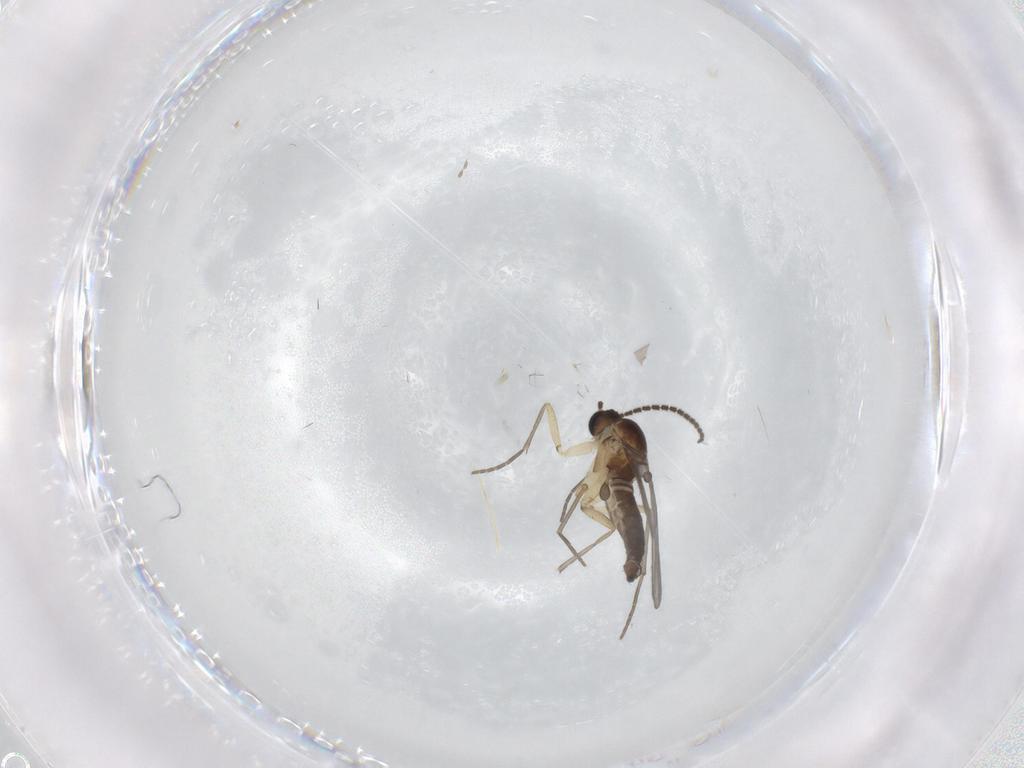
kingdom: Animalia
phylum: Arthropoda
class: Insecta
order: Diptera
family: Sciaridae
